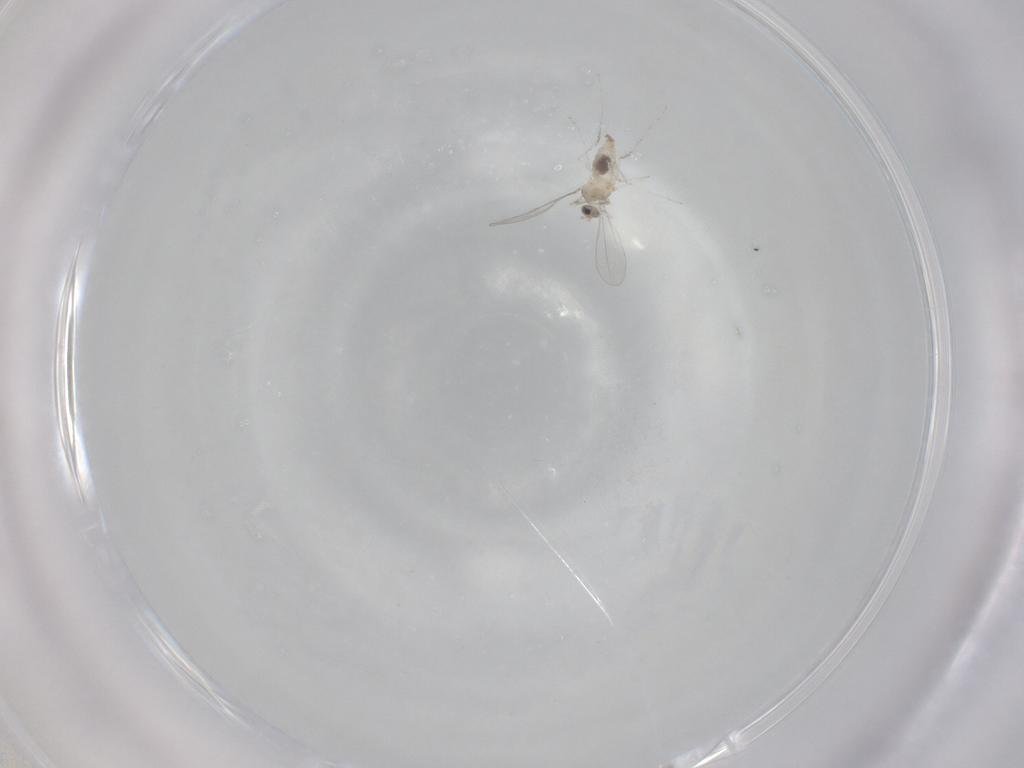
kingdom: Animalia
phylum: Arthropoda
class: Insecta
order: Diptera
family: Cecidomyiidae
